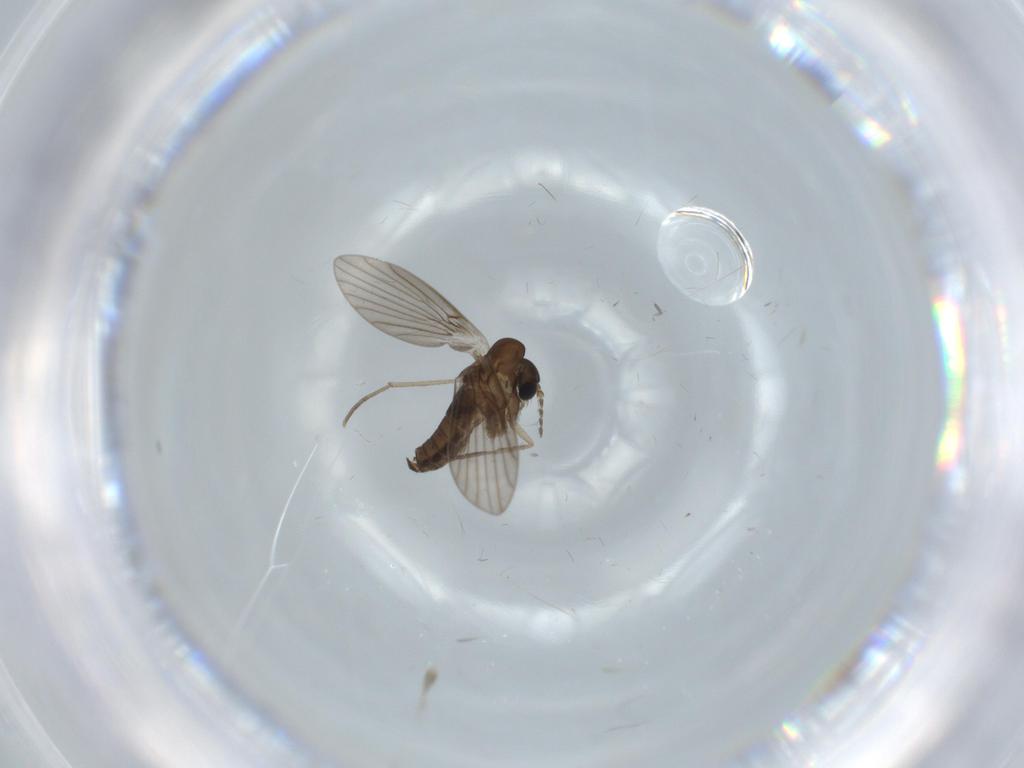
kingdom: Animalia
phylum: Arthropoda
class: Insecta
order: Diptera
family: Psychodidae
